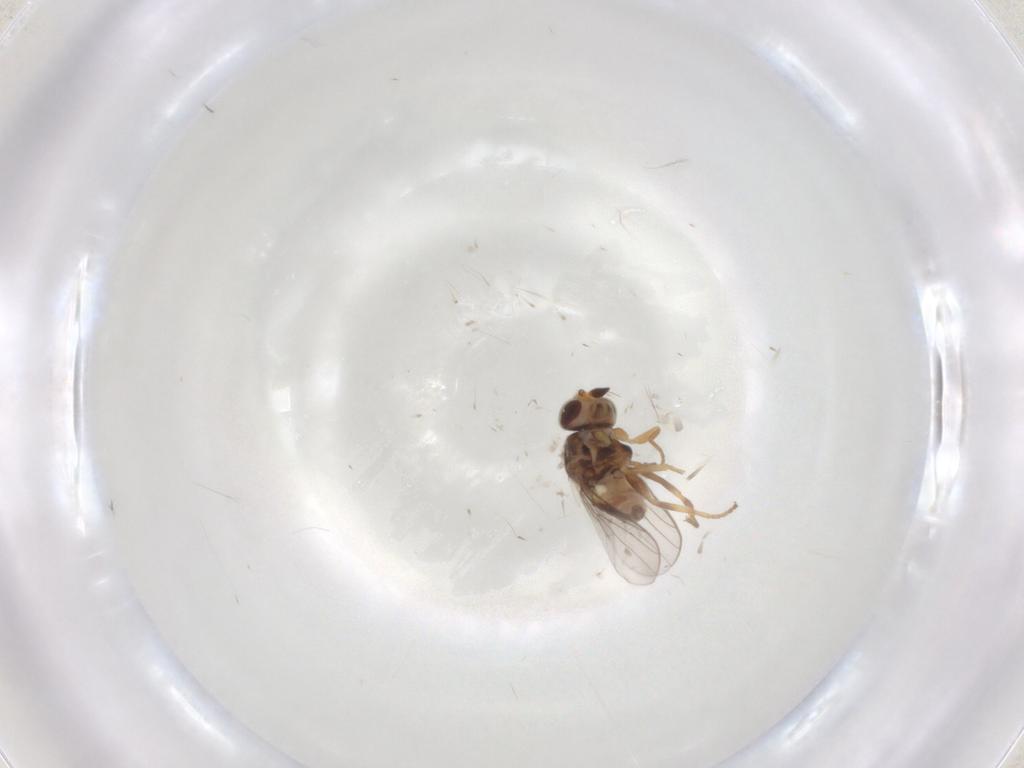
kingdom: Animalia
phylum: Arthropoda
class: Insecta
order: Diptera
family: Chloropidae
